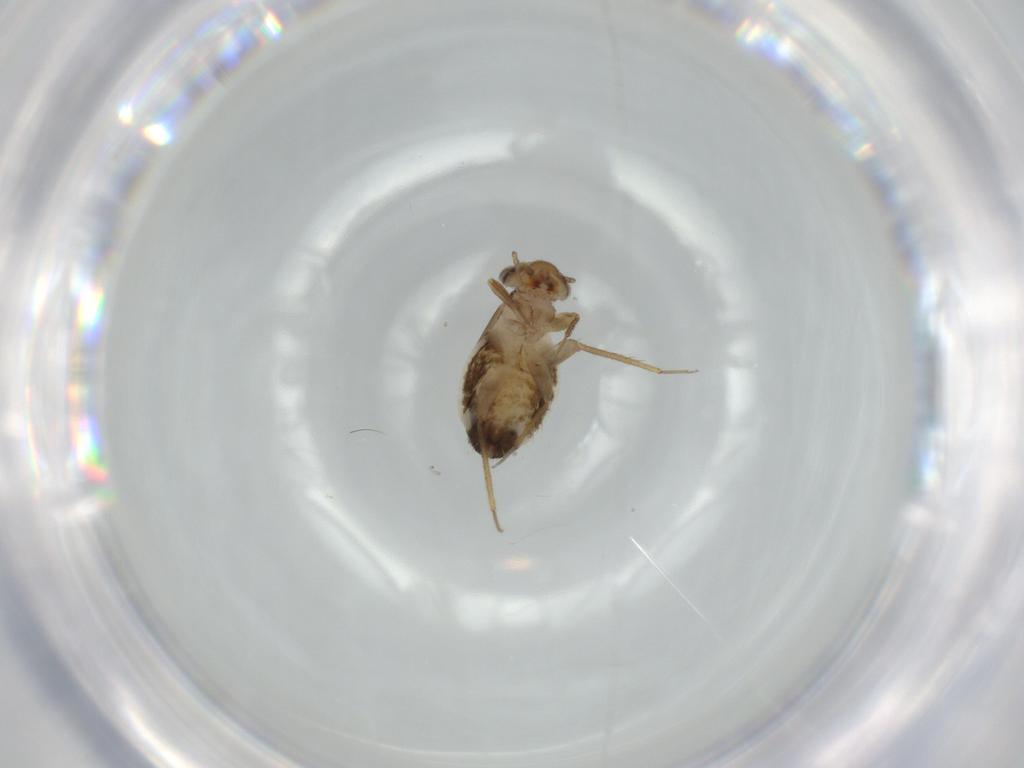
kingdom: Animalia
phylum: Arthropoda
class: Insecta
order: Psocodea
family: Lepidopsocidae
